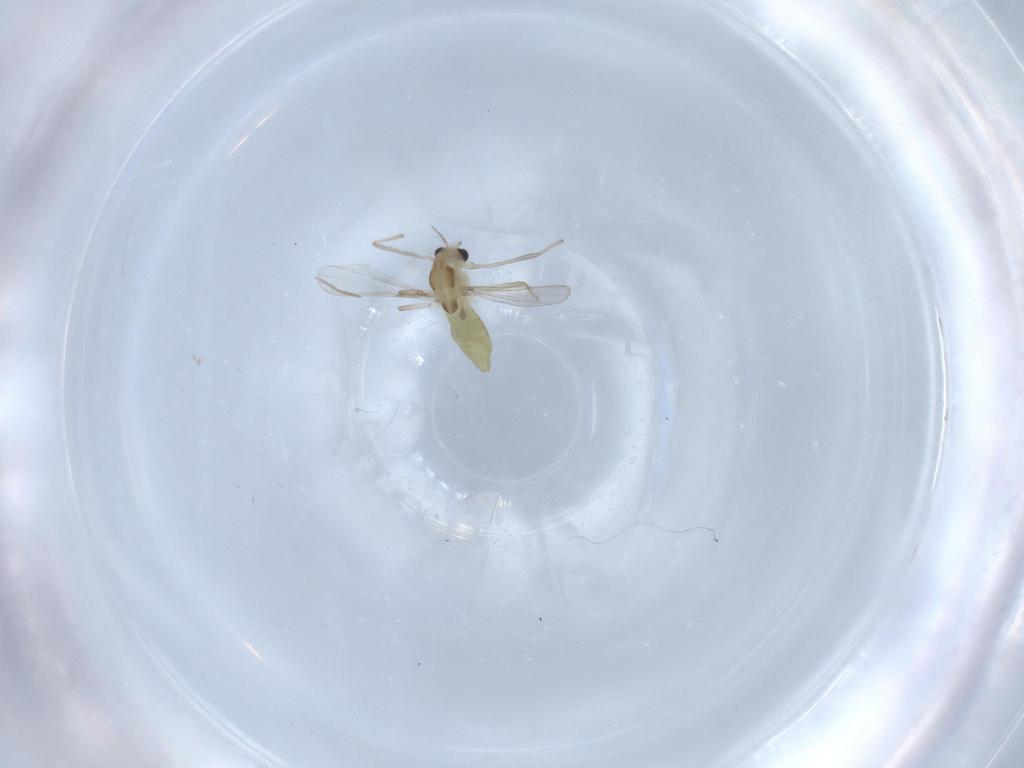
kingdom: Animalia
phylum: Arthropoda
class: Insecta
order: Diptera
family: Chironomidae
